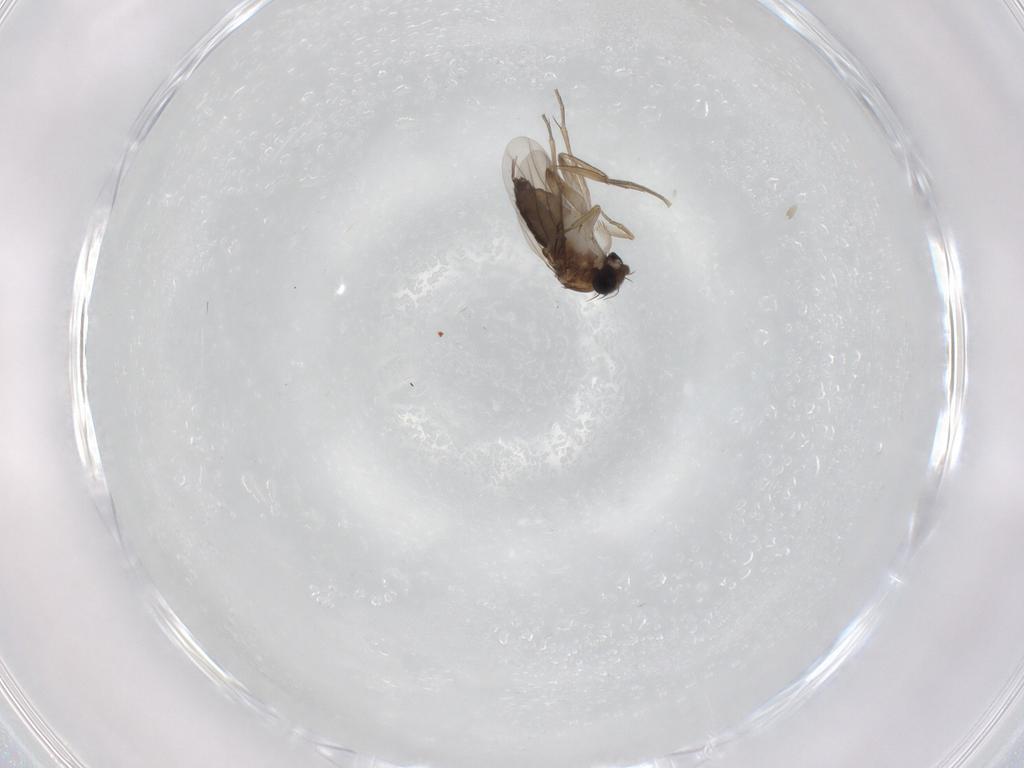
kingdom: Animalia
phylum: Arthropoda
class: Insecta
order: Diptera
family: Phoridae
